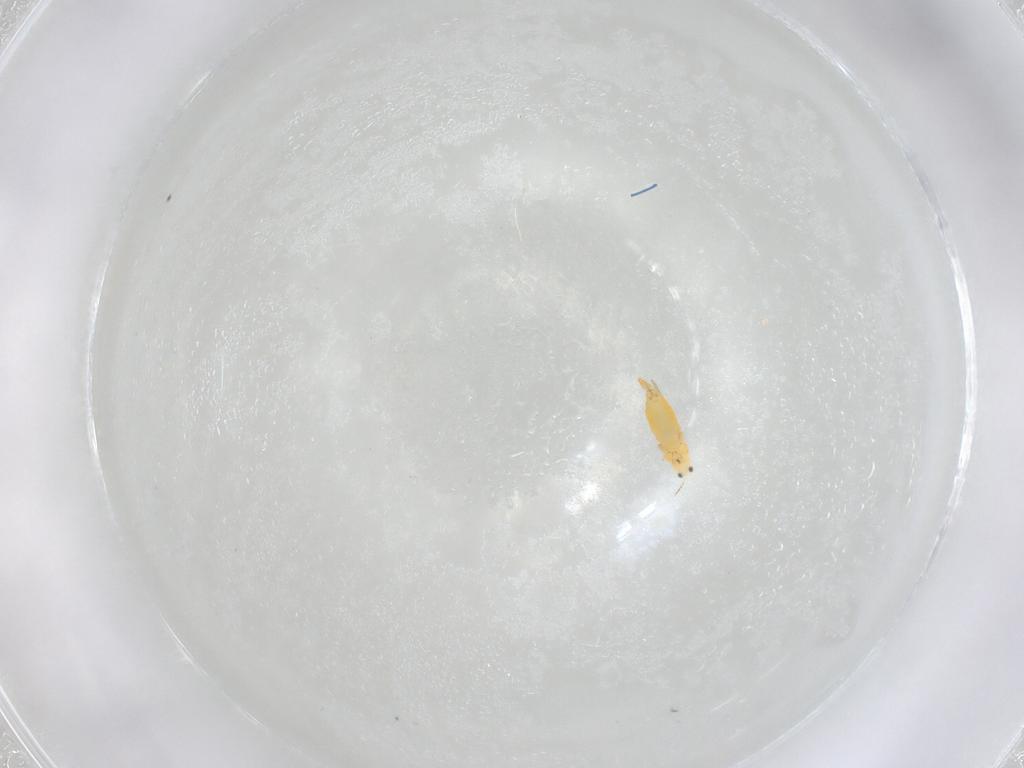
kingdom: Animalia
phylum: Arthropoda
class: Insecta
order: Thysanoptera
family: Thripidae
